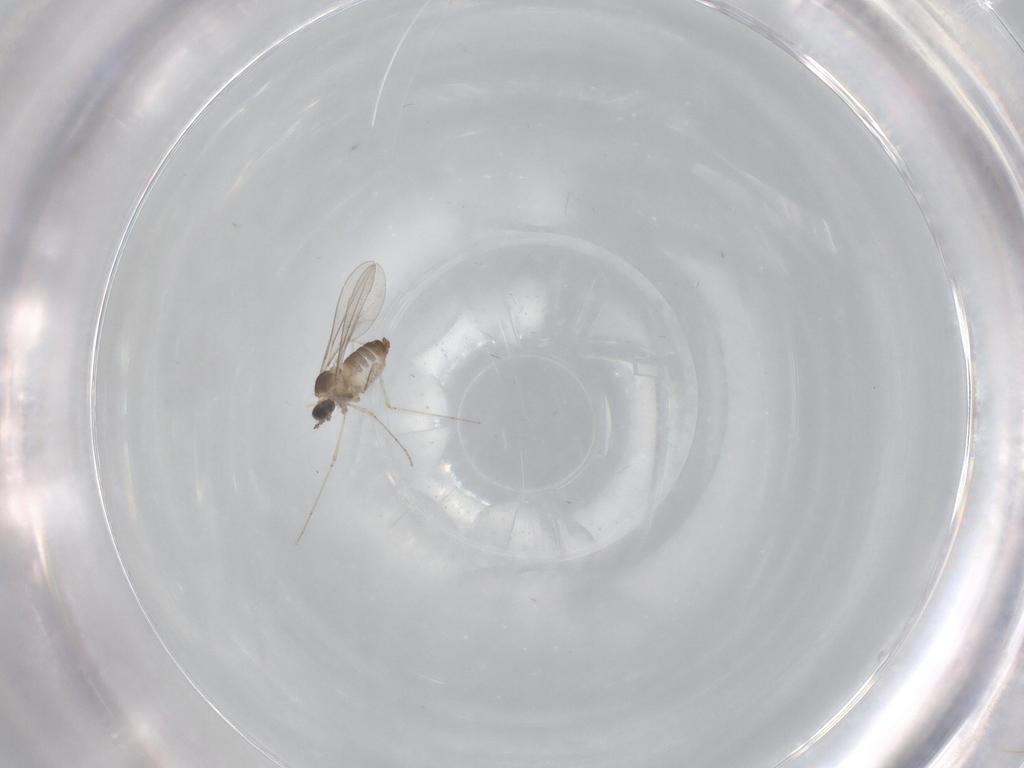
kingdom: Animalia
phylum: Arthropoda
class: Insecta
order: Diptera
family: Cecidomyiidae
